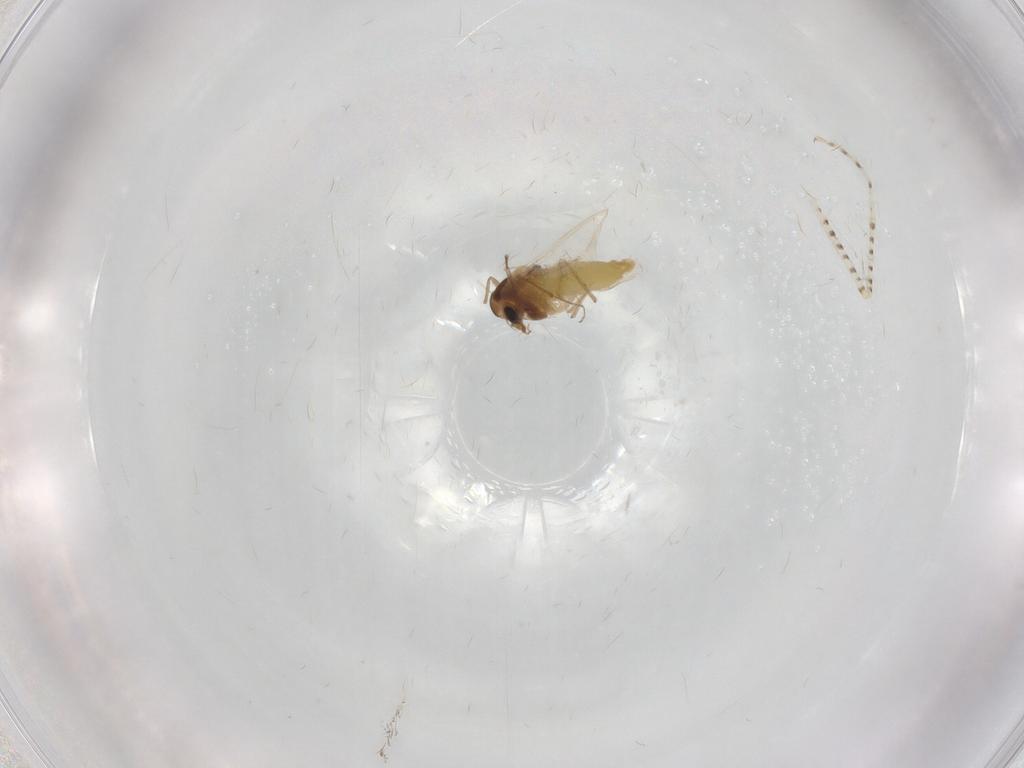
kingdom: Animalia
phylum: Arthropoda
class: Insecta
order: Diptera
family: Chironomidae
